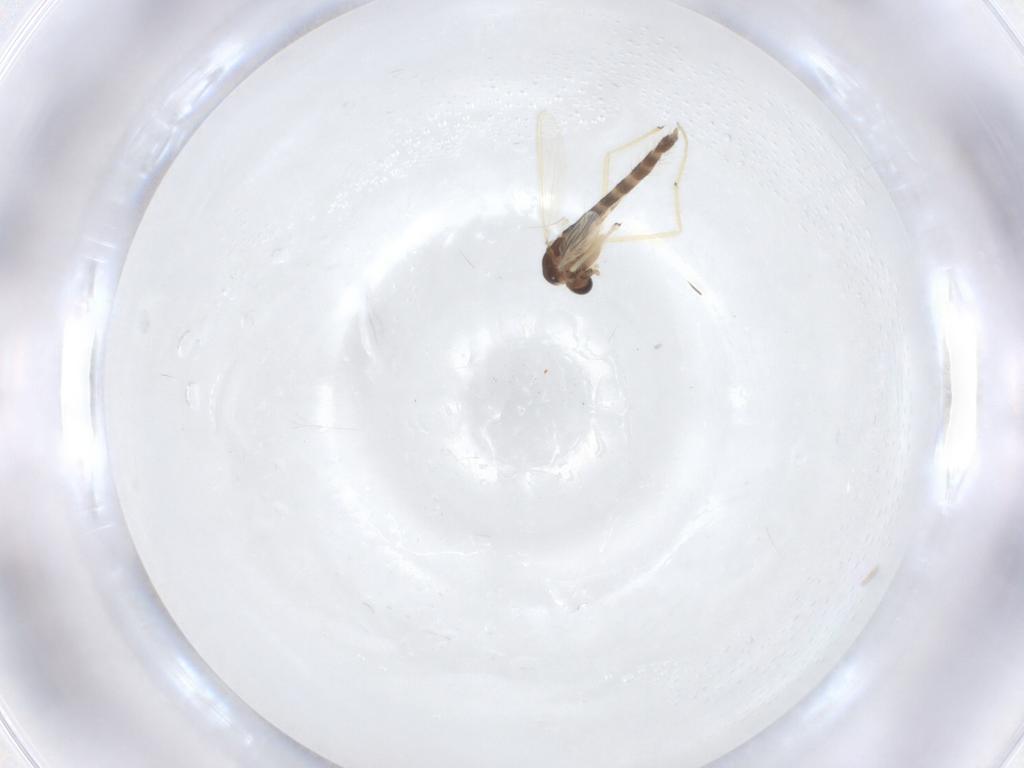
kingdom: Animalia
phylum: Arthropoda
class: Insecta
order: Diptera
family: Chironomidae
